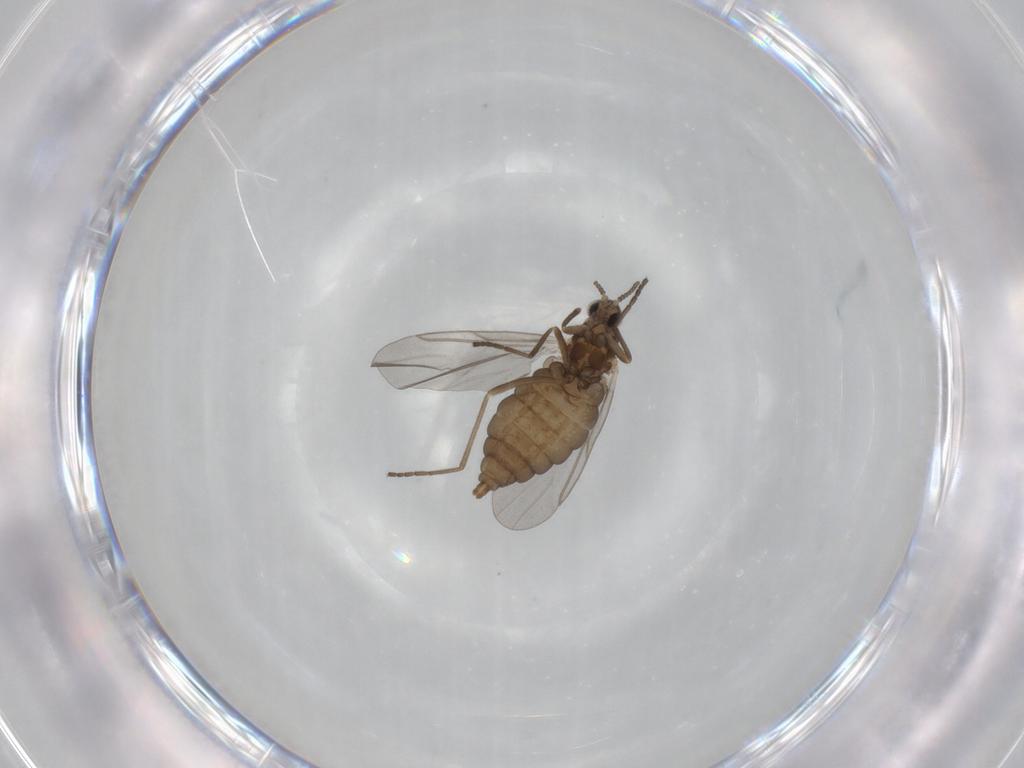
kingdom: Animalia
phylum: Arthropoda
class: Insecta
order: Diptera
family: Cecidomyiidae
